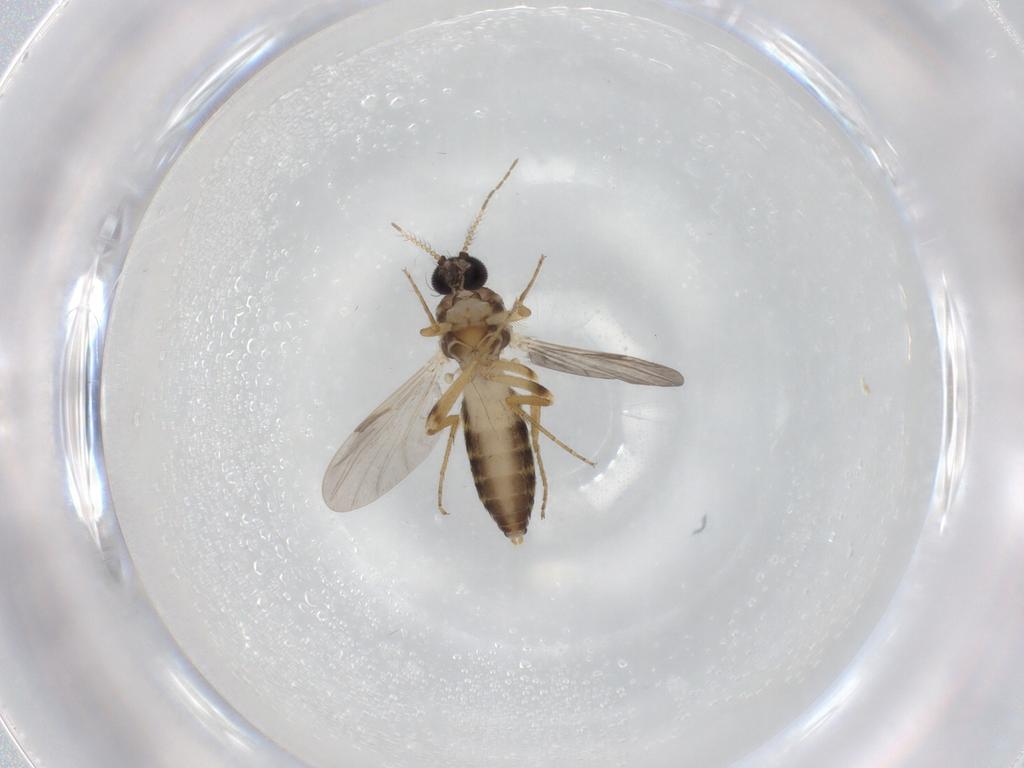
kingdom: Animalia
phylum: Arthropoda
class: Insecta
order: Diptera
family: Ceratopogonidae
